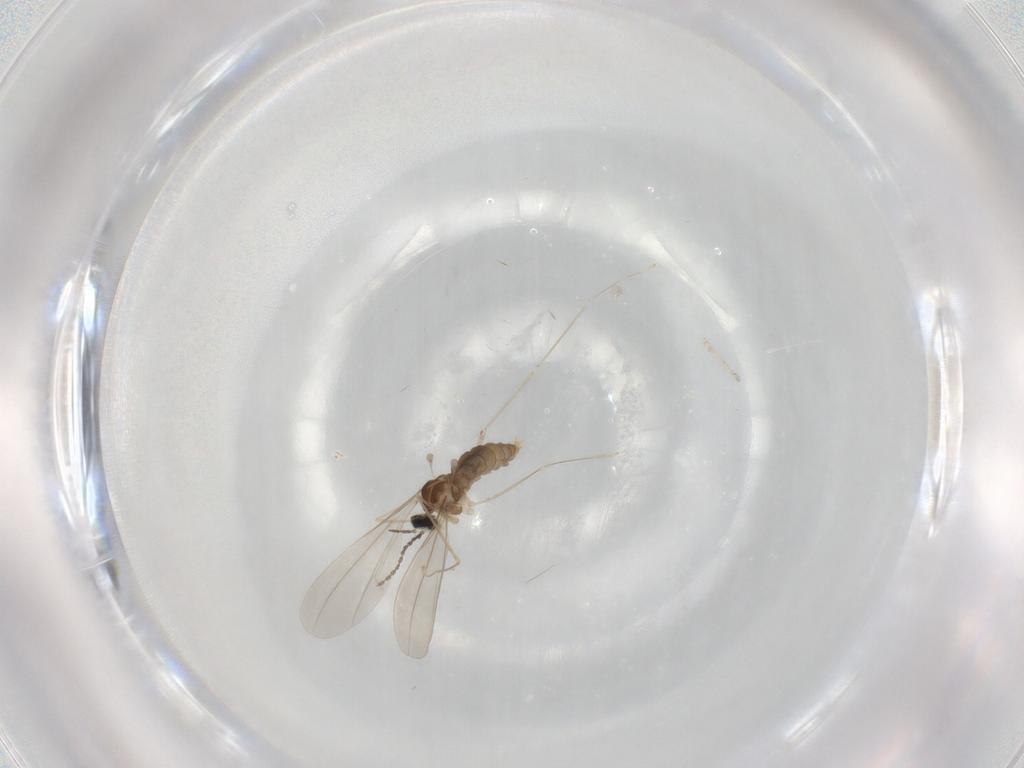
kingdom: Animalia
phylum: Arthropoda
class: Insecta
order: Diptera
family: Cecidomyiidae
